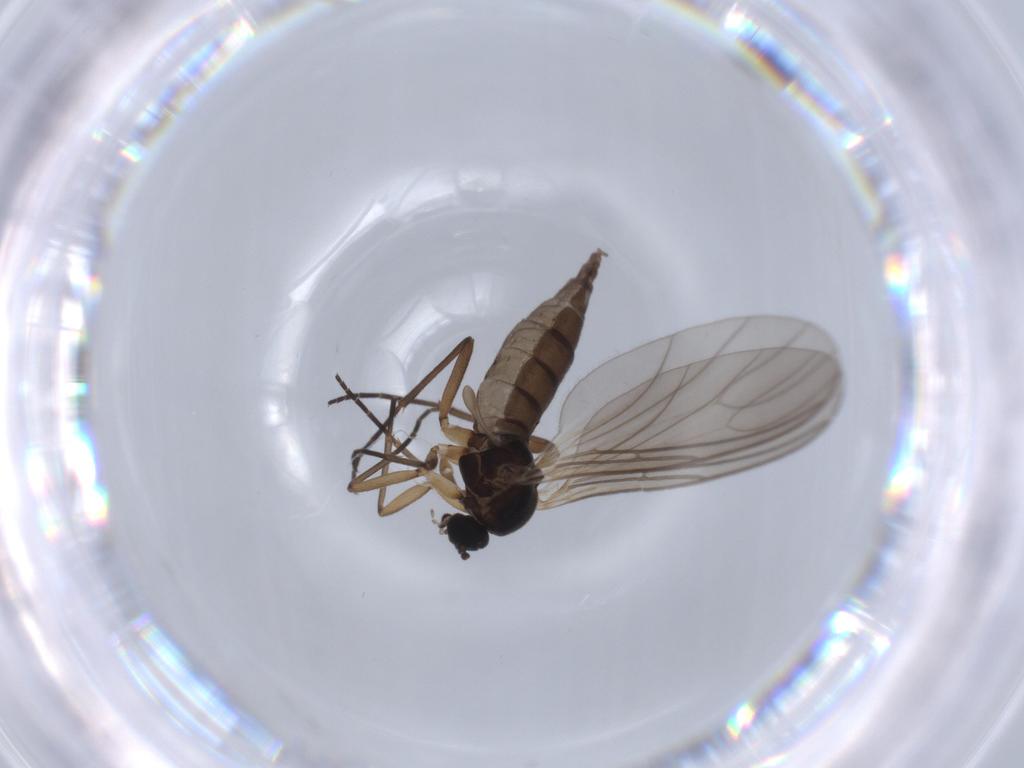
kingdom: Animalia
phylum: Arthropoda
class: Insecta
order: Diptera
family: Sciaridae
